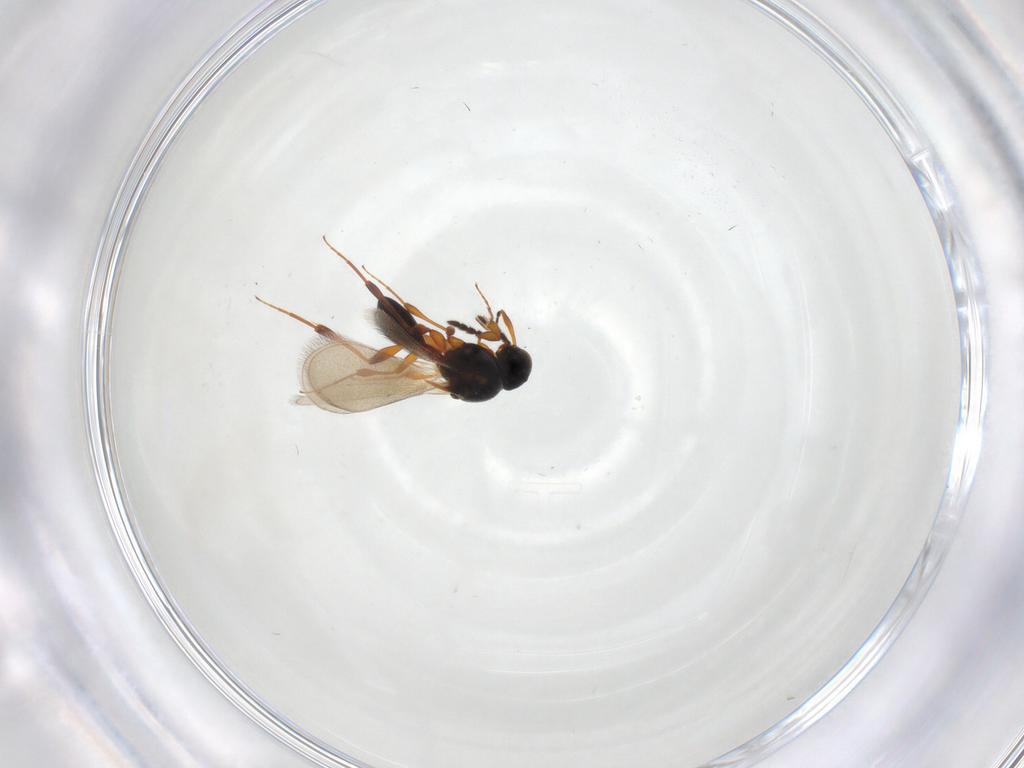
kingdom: Animalia
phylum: Arthropoda
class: Insecta
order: Hymenoptera
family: Platygastridae
